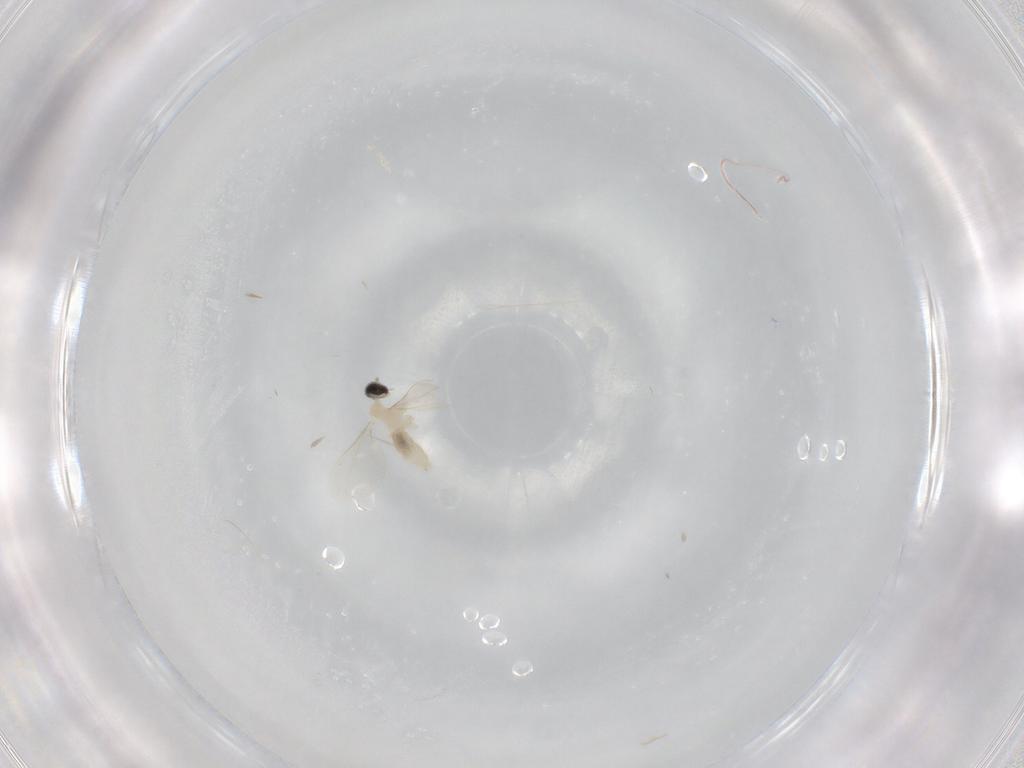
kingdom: Animalia
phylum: Arthropoda
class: Insecta
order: Diptera
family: Cecidomyiidae
